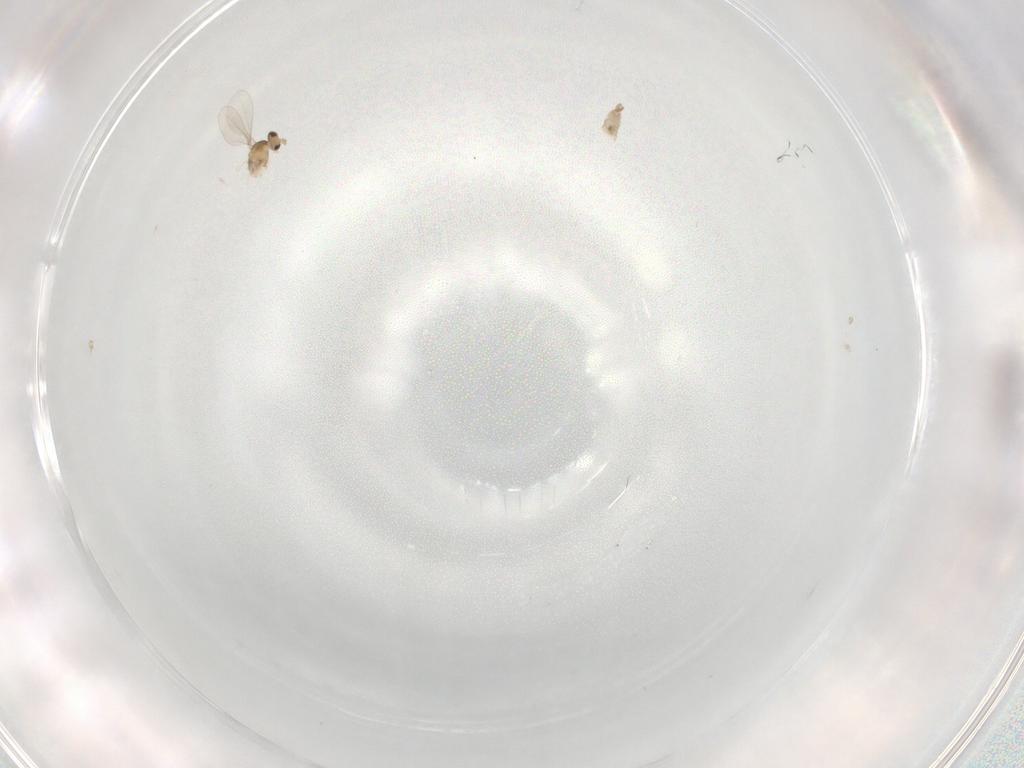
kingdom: Animalia
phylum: Arthropoda
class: Insecta
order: Diptera
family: Cecidomyiidae
